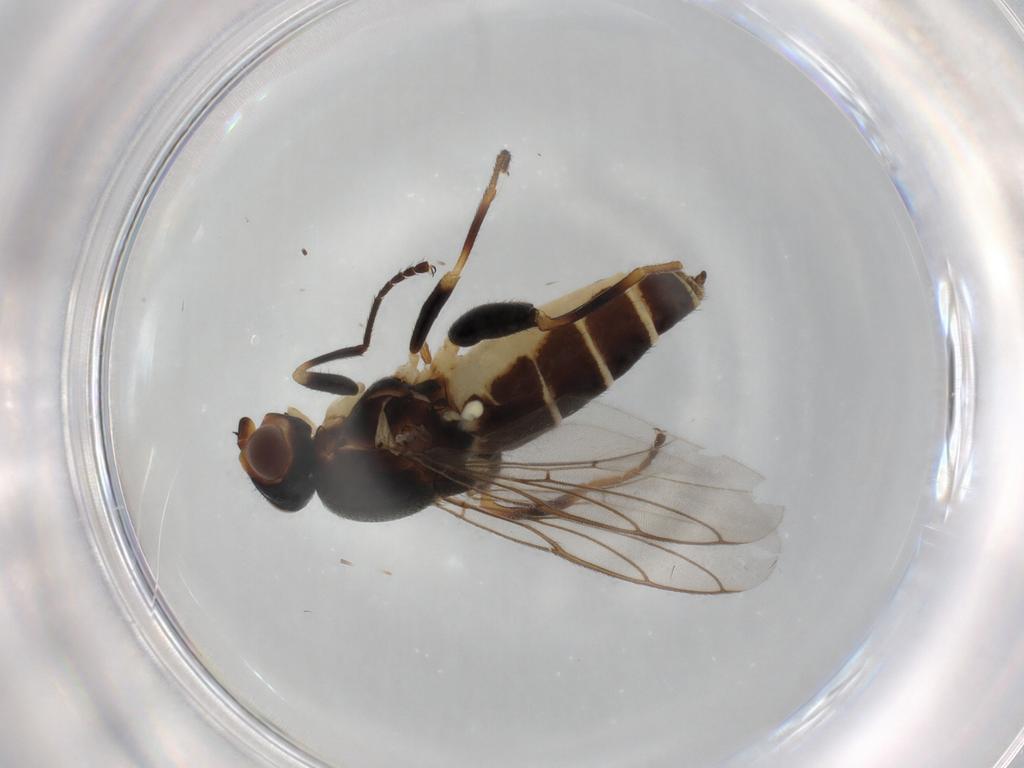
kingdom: Animalia
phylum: Arthropoda
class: Insecta
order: Diptera
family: Chloropidae
